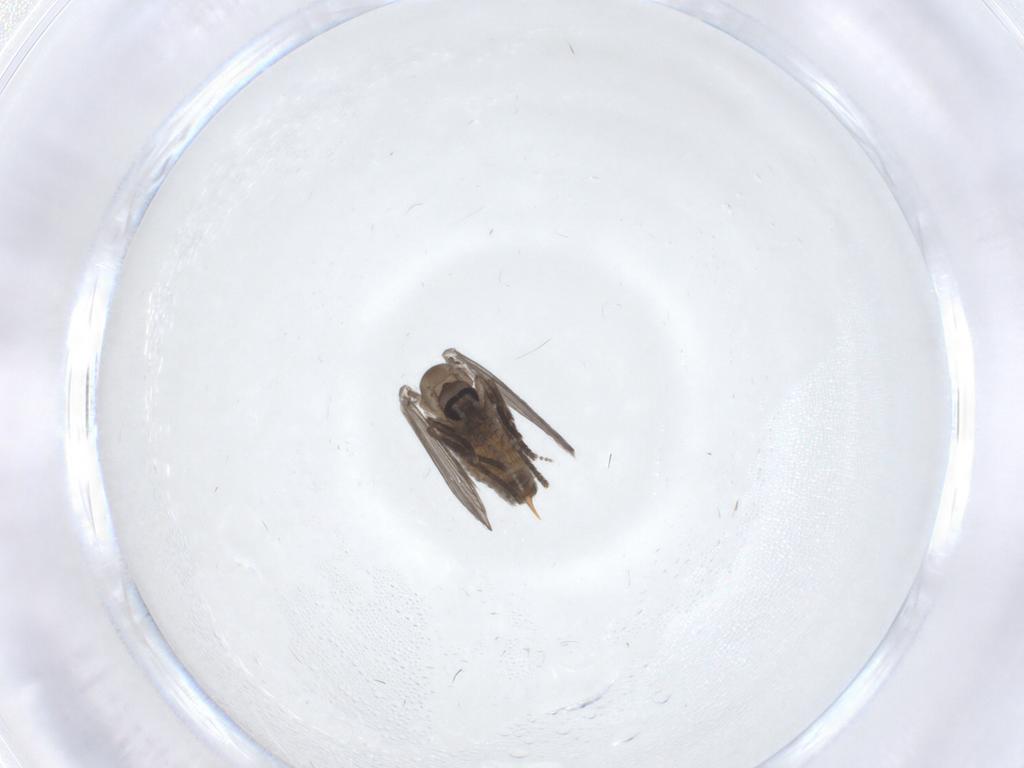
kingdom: Animalia
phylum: Arthropoda
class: Insecta
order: Diptera
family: Psychodidae
